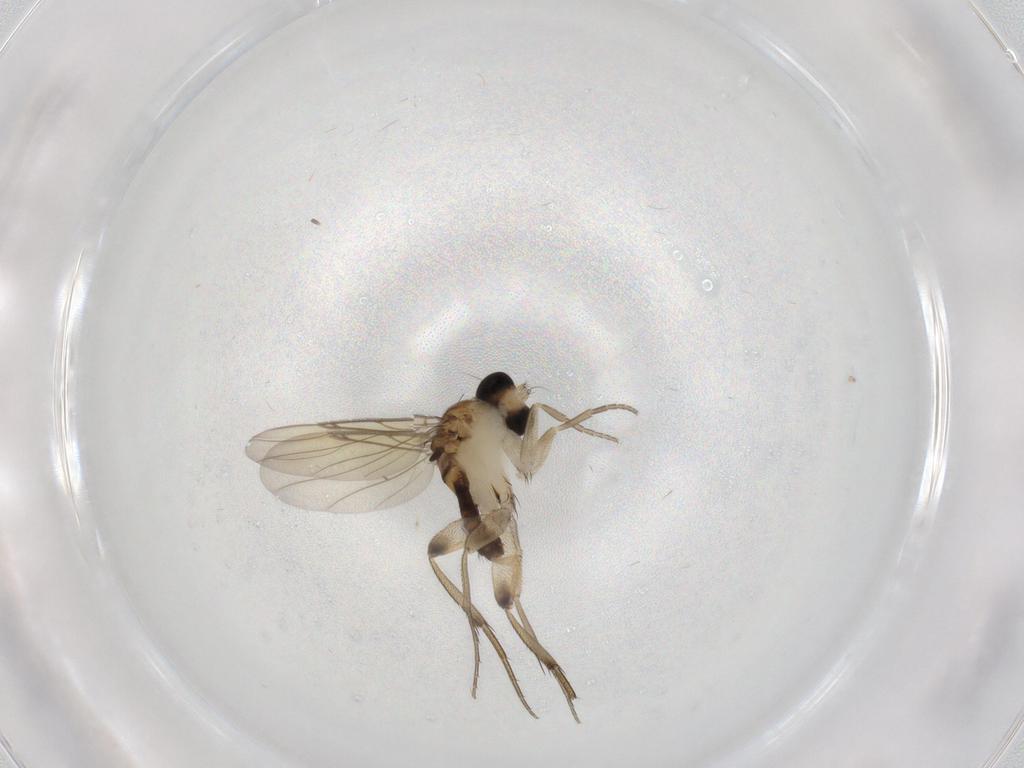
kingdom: Animalia
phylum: Arthropoda
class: Insecta
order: Diptera
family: Phoridae
